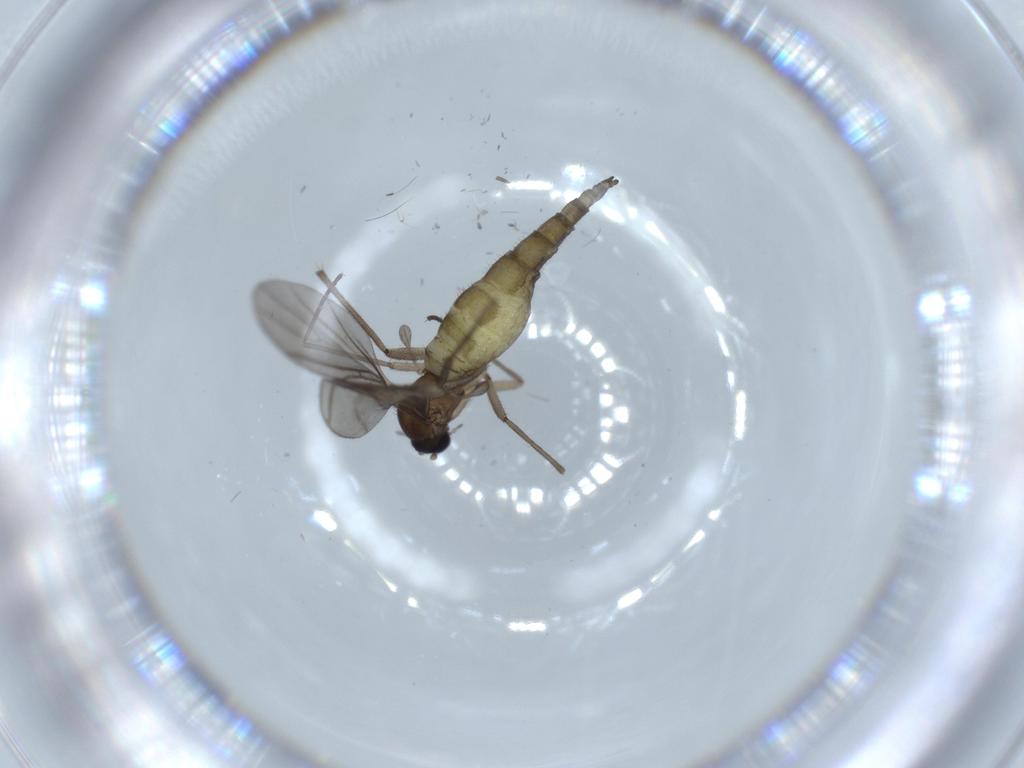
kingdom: Animalia
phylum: Arthropoda
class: Insecta
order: Diptera
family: Sciaridae
